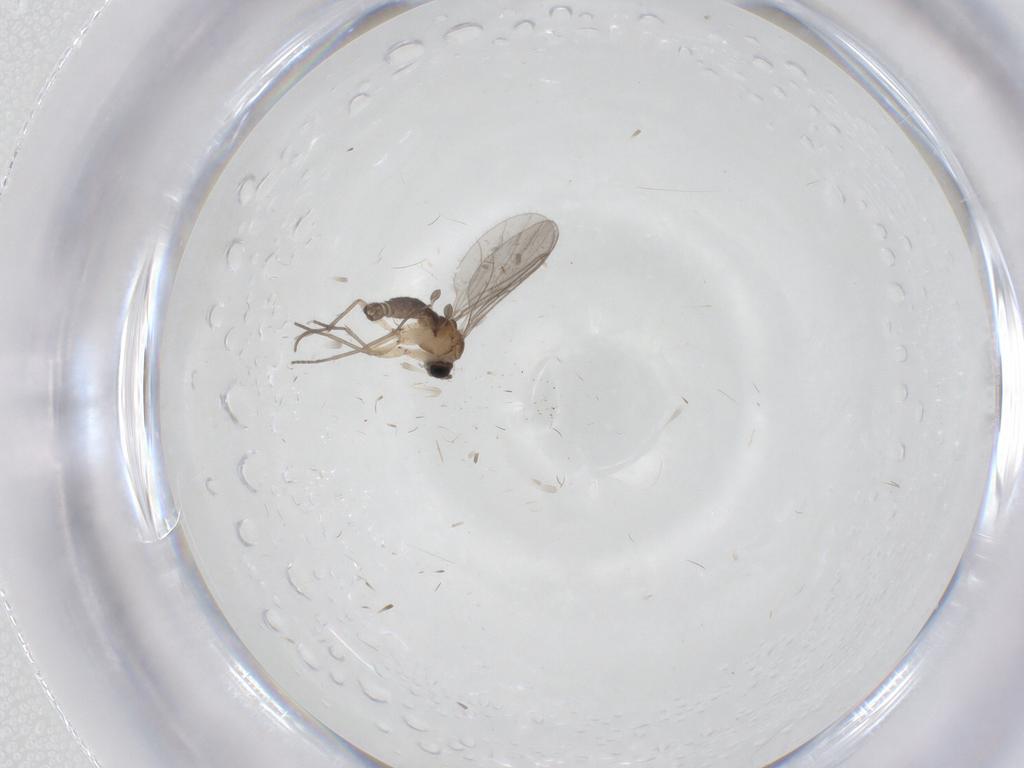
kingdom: Animalia
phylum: Arthropoda
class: Insecta
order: Diptera
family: Chironomidae
